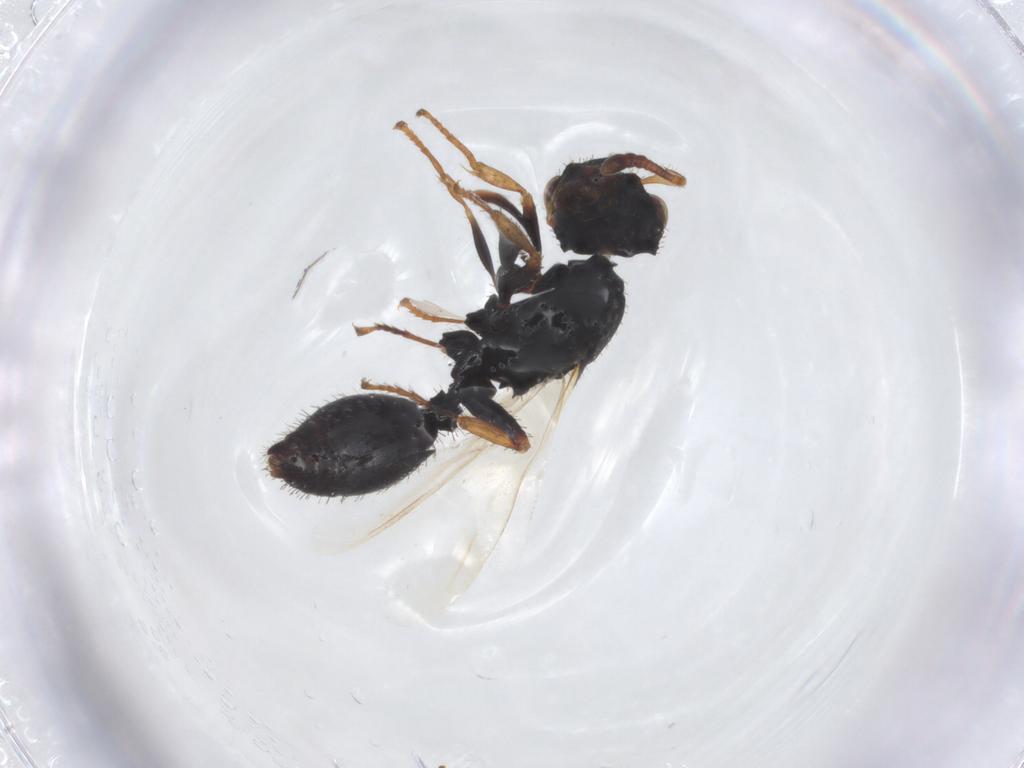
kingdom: Animalia
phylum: Arthropoda
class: Insecta
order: Hymenoptera
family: Formicidae
